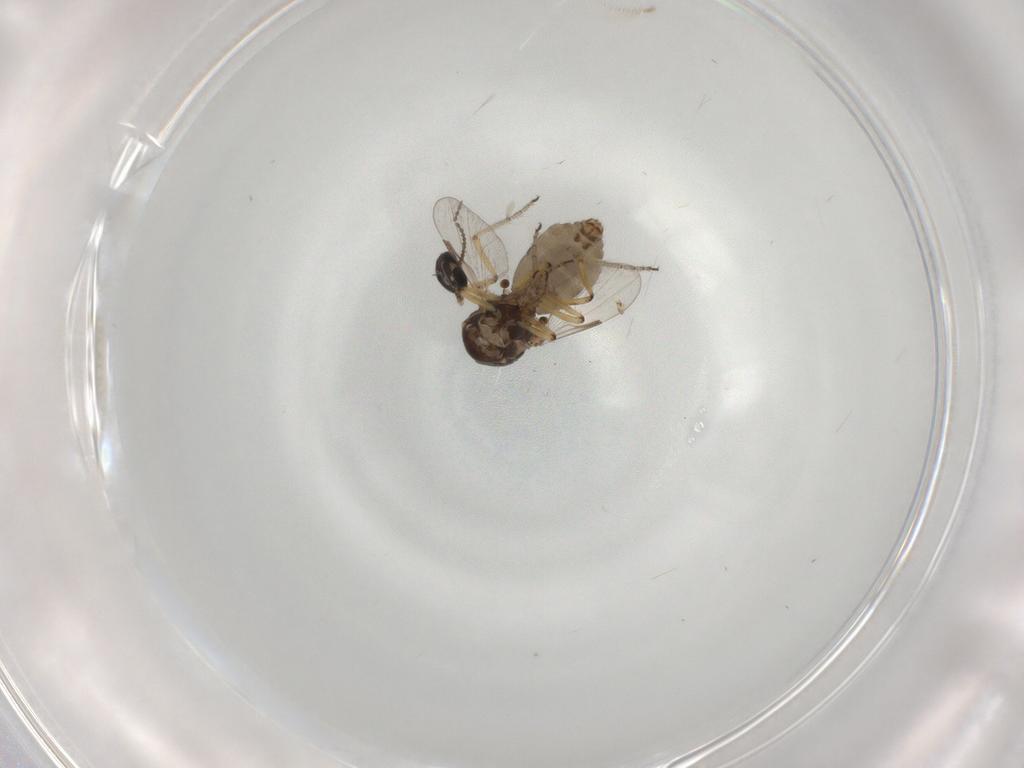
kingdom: Animalia
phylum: Arthropoda
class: Insecta
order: Diptera
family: Ceratopogonidae
